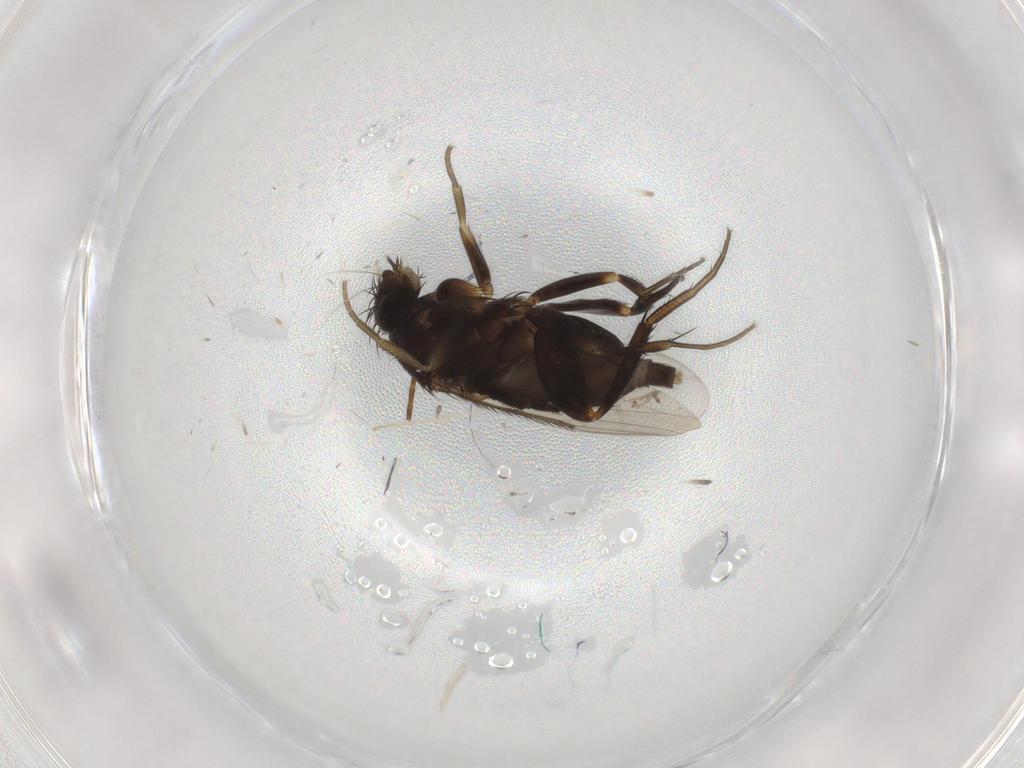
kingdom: Animalia
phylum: Arthropoda
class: Insecta
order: Diptera
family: Phoridae
